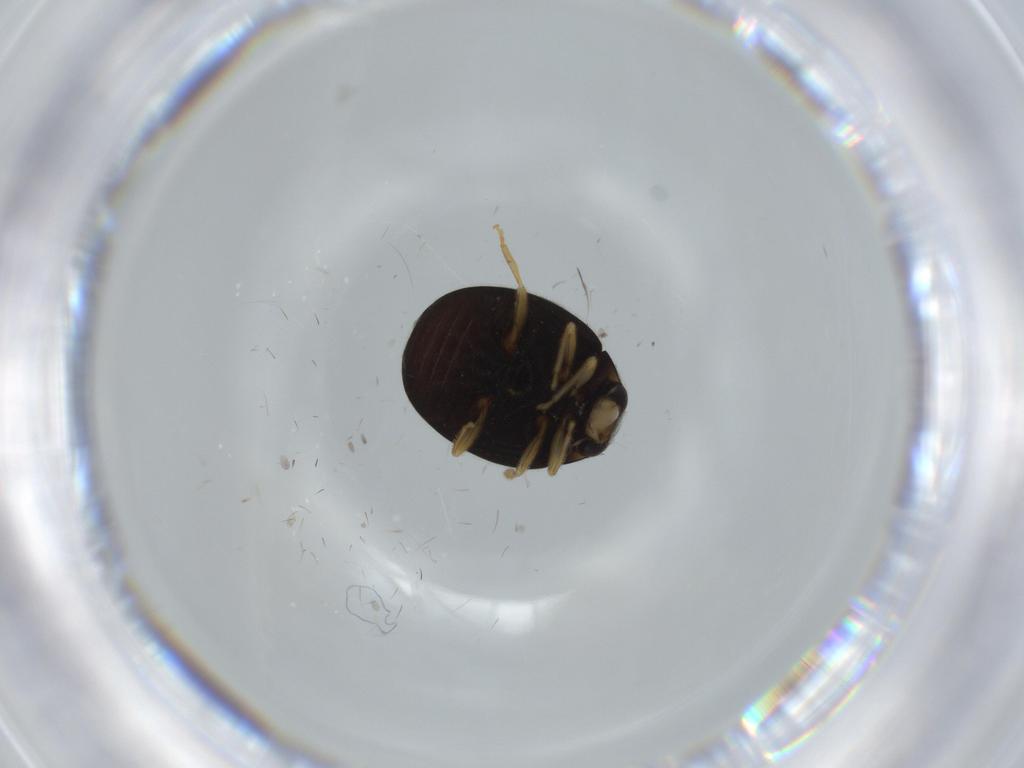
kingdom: Animalia
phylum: Arthropoda
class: Insecta
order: Coleoptera
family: Coccinellidae
